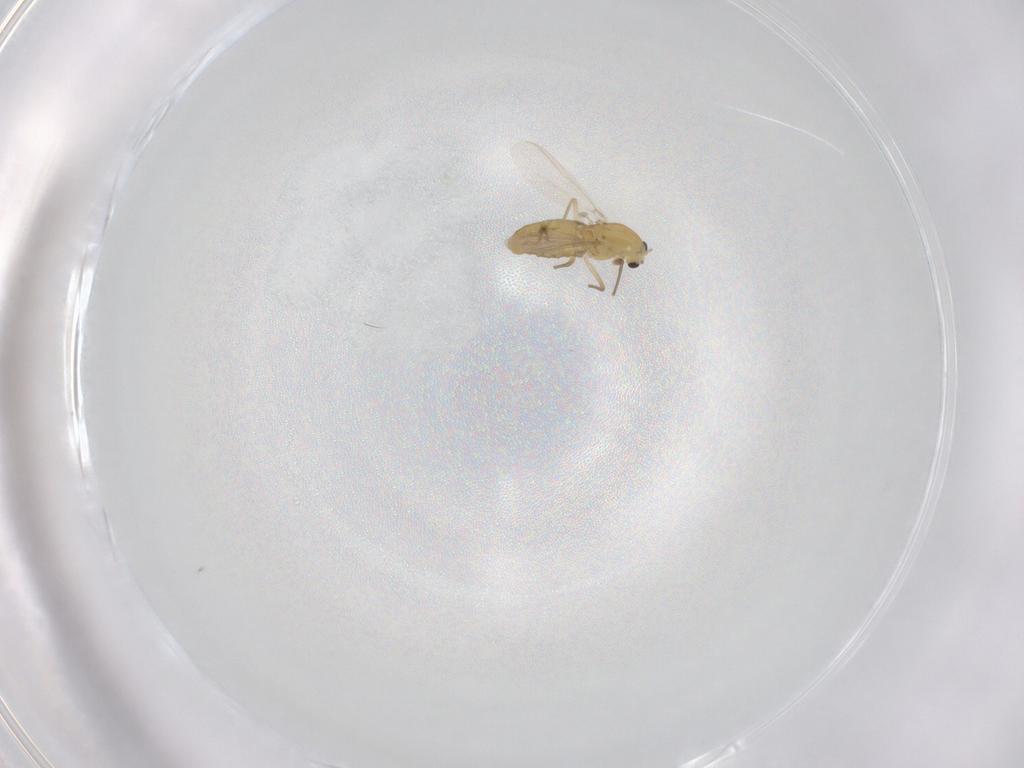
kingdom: Animalia
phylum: Arthropoda
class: Insecta
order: Diptera
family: Chironomidae
